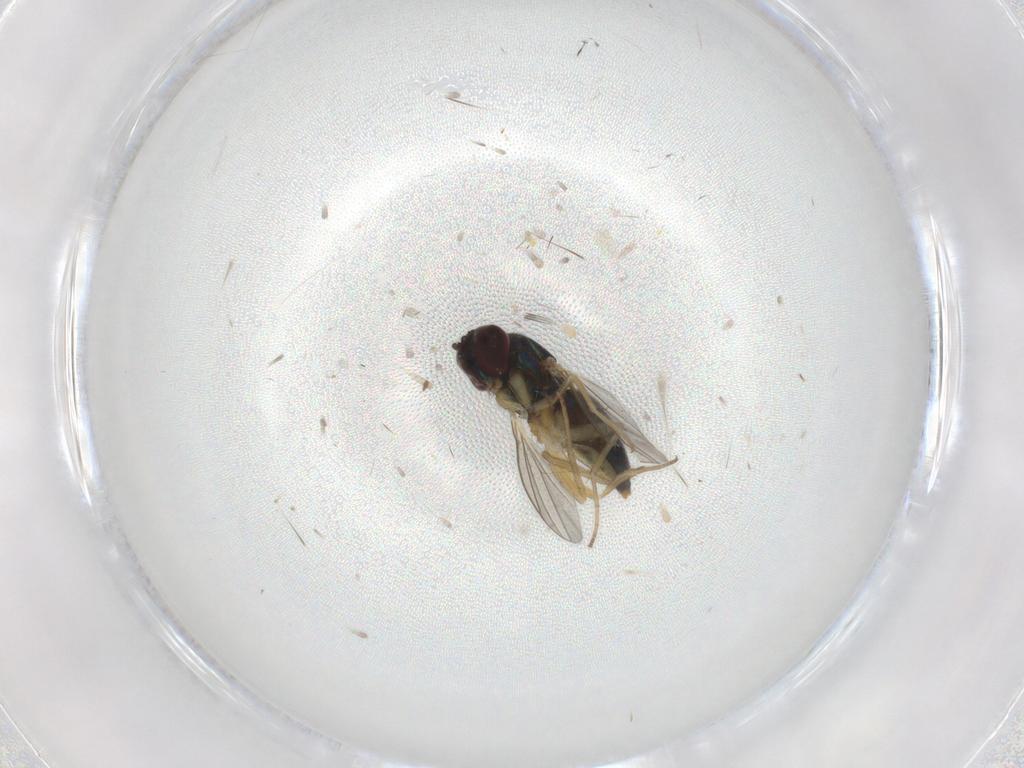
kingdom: Animalia
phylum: Arthropoda
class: Insecta
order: Diptera
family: Dolichopodidae
